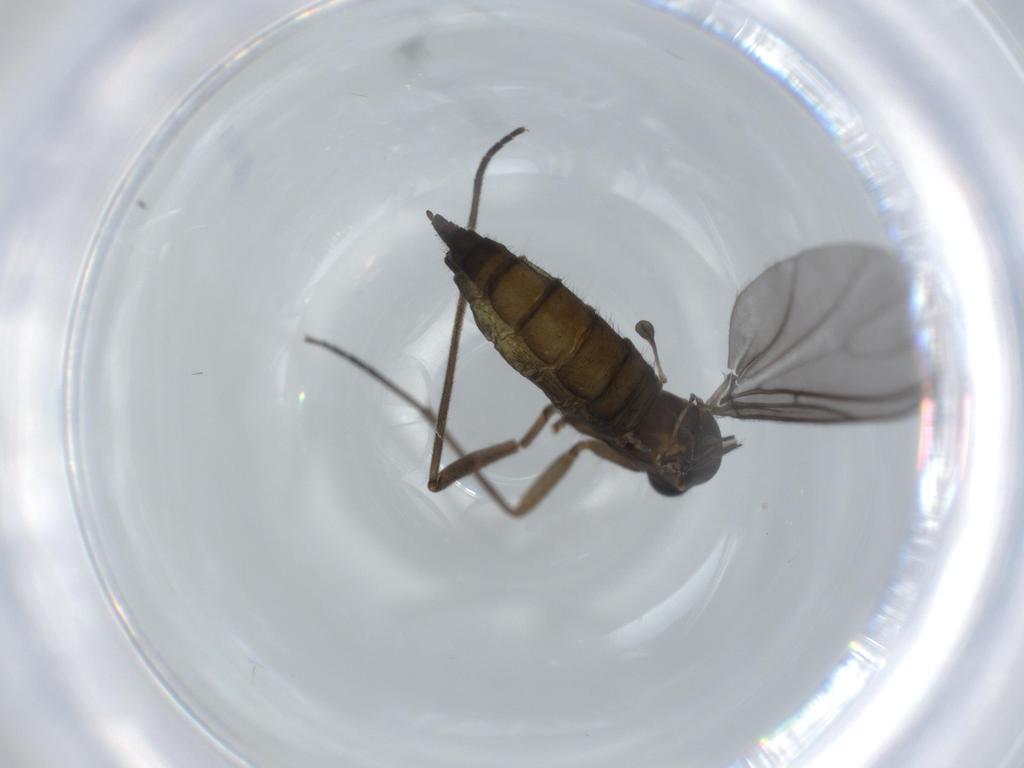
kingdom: Animalia
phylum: Arthropoda
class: Insecta
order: Diptera
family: Sciaridae
